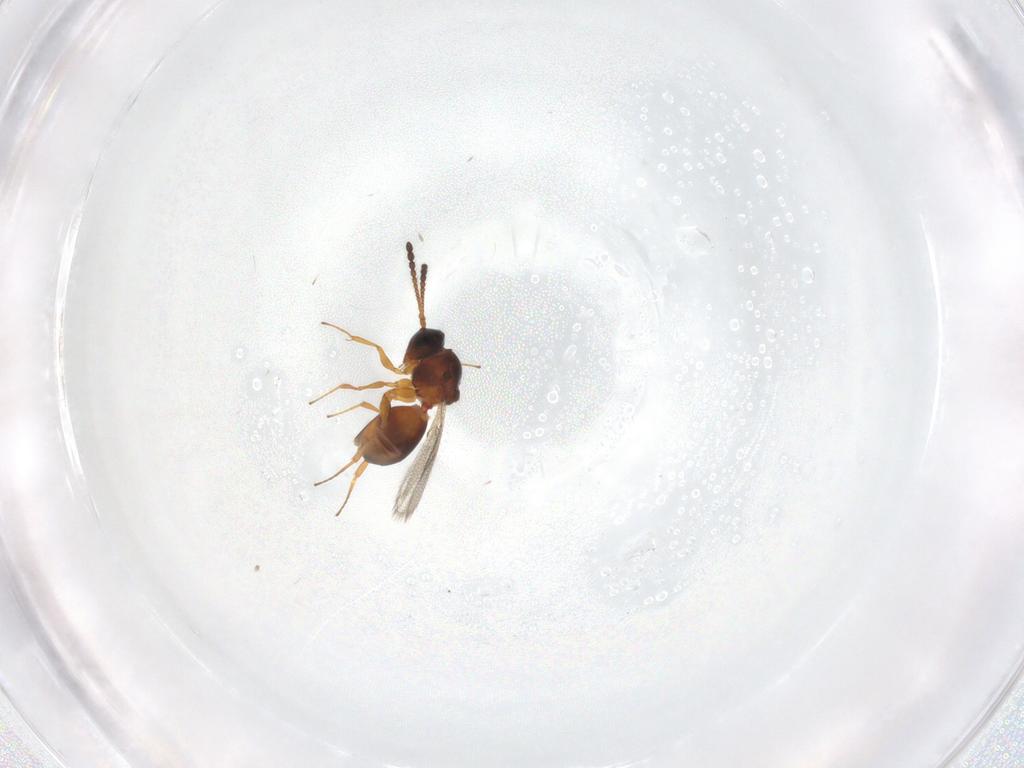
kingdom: Animalia
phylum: Arthropoda
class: Insecta
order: Hymenoptera
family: Figitidae
